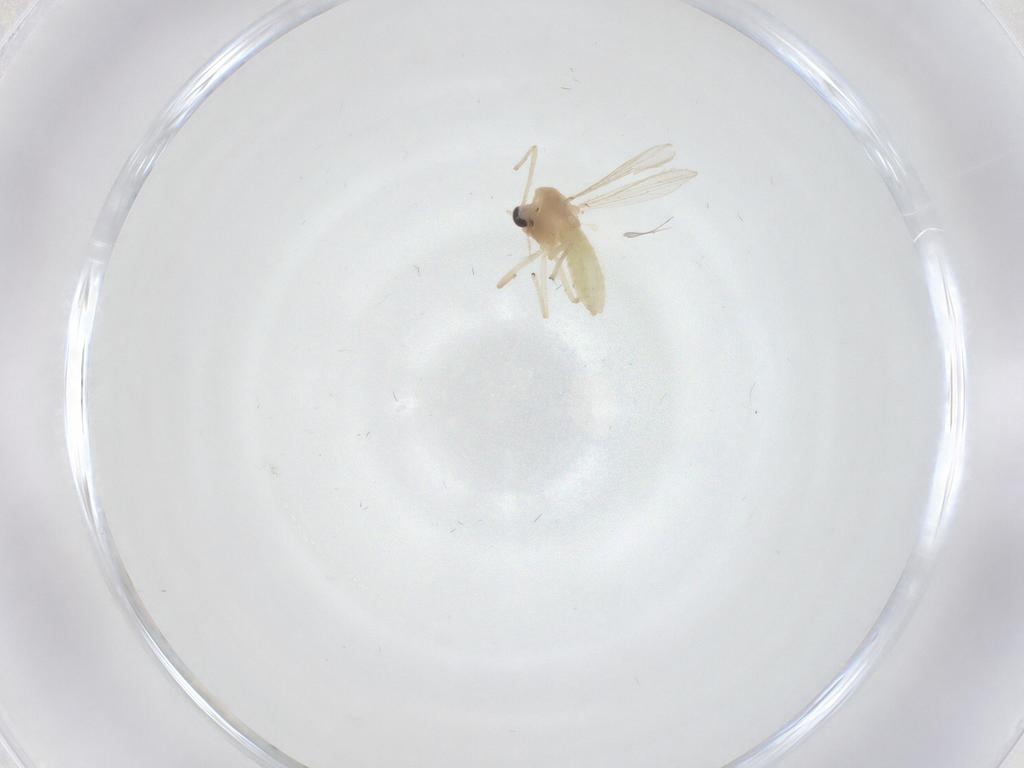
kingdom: Animalia
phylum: Arthropoda
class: Insecta
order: Diptera
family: Chironomidae
